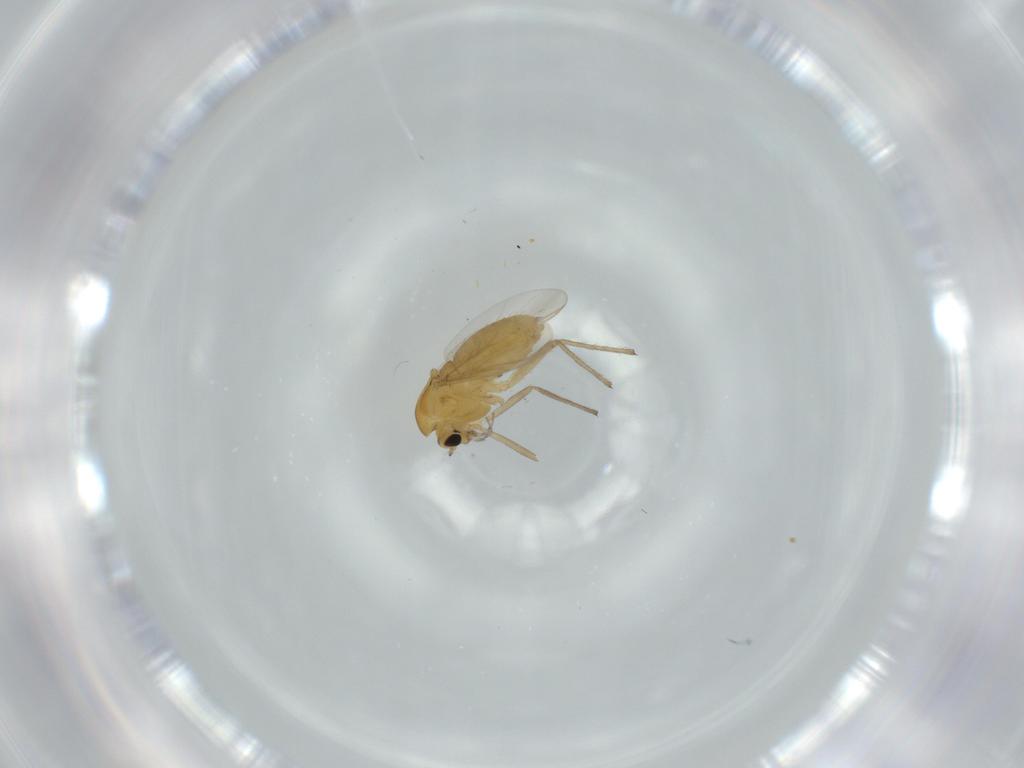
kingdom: Animalia
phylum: Arthropoda
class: Insecta
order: Diptera
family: Chironomidae
